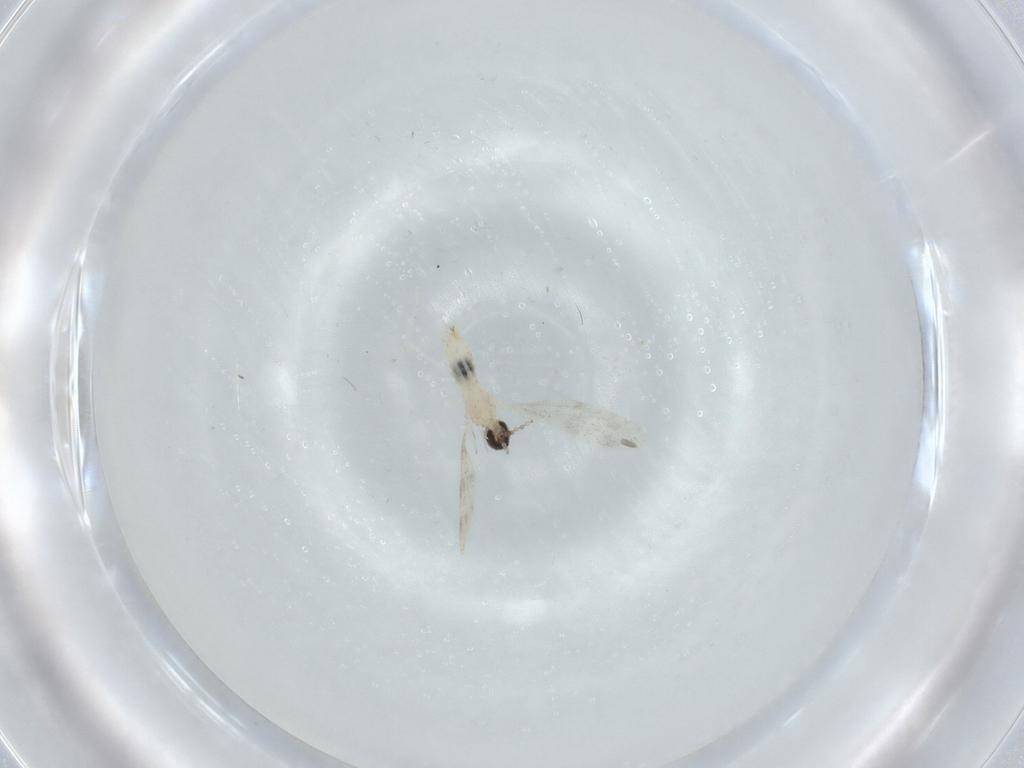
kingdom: Animalia
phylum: Arthropoda
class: Insecta
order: Diptera
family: Cecidomyiidae
